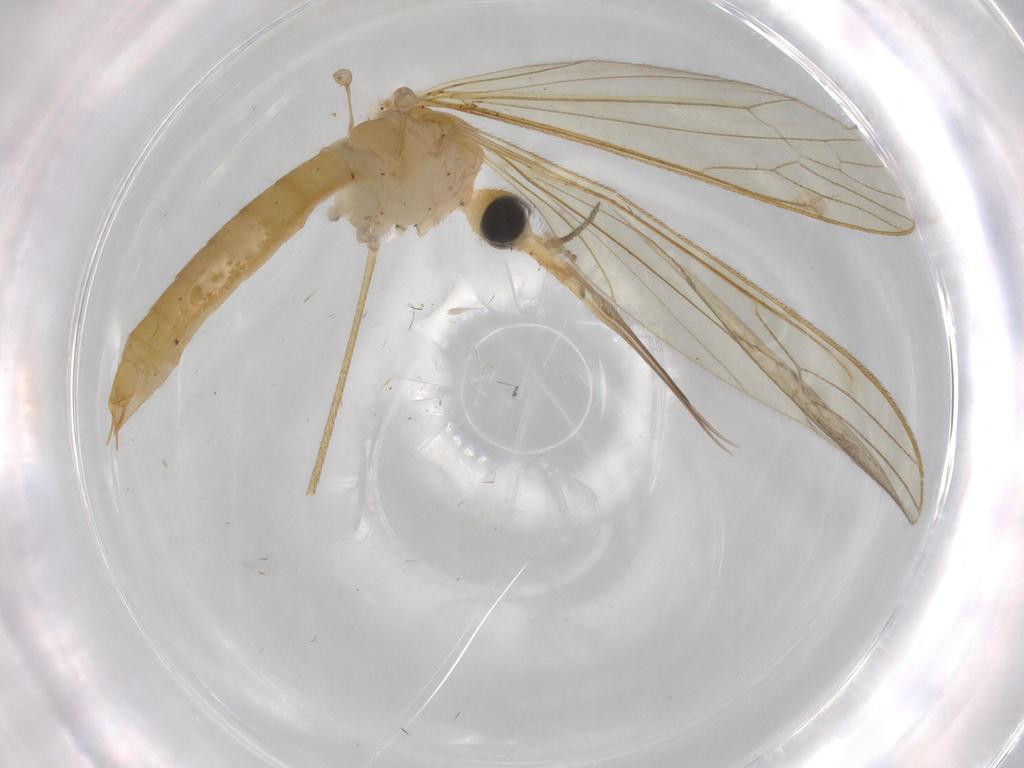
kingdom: Animalia
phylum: Arthropoda
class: Insecta
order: Diptera
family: Limoniidae
